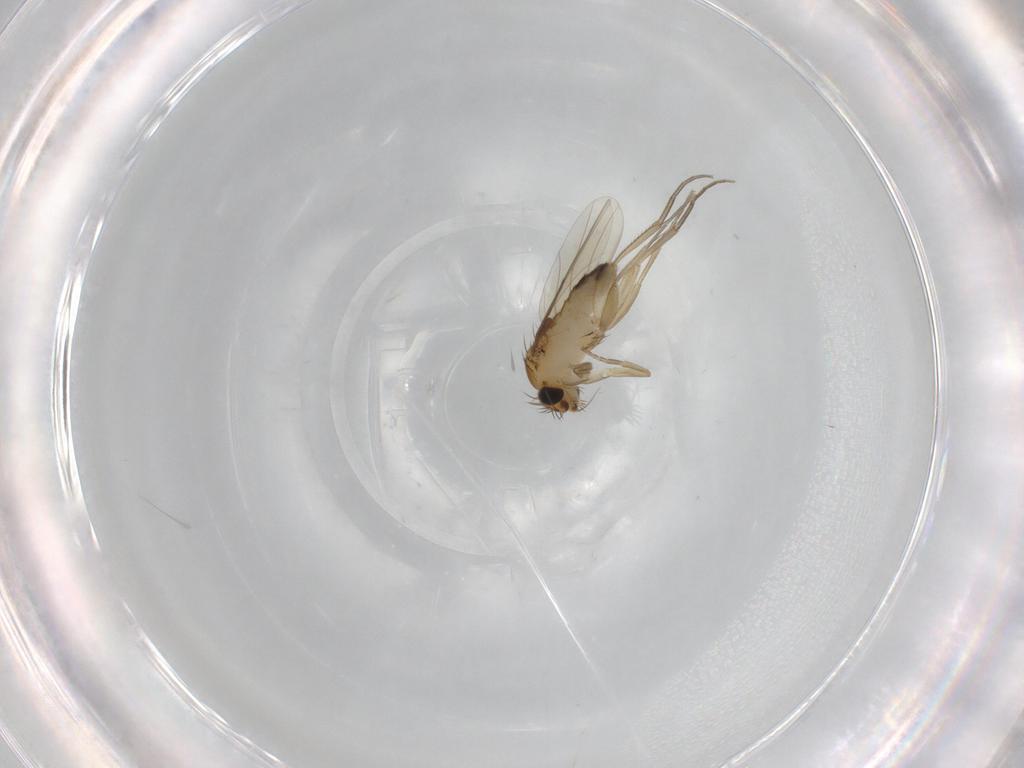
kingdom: Animalia
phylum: Arthropoda
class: Insecta
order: Diptera
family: Phoridae
